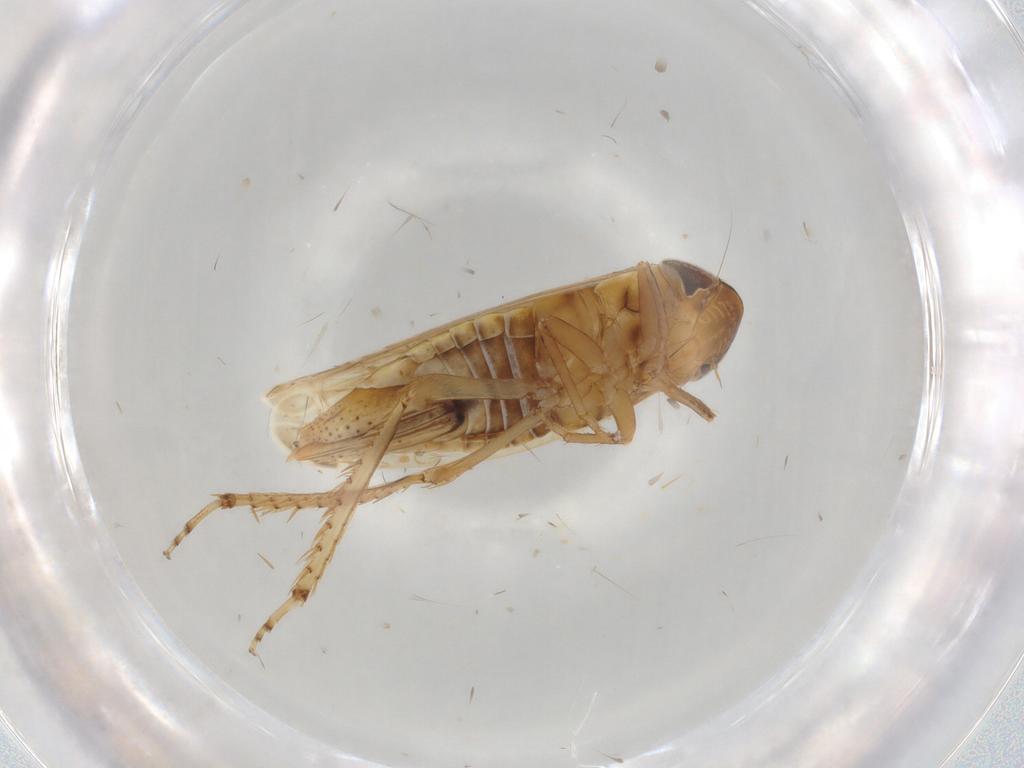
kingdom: Animalia
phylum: Arthropoda
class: Insecta
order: Hemiptera
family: Cicadellidae
